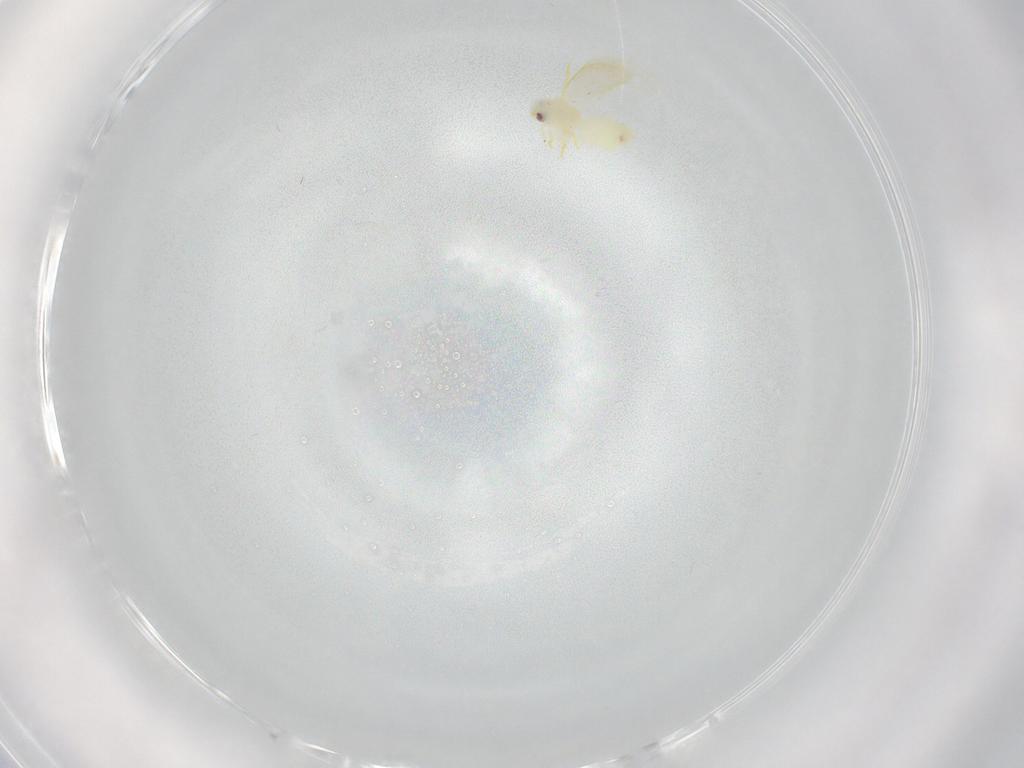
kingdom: Animalia
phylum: Arthropoda
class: Insecta
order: Hemiptera
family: Aleyrodidae
